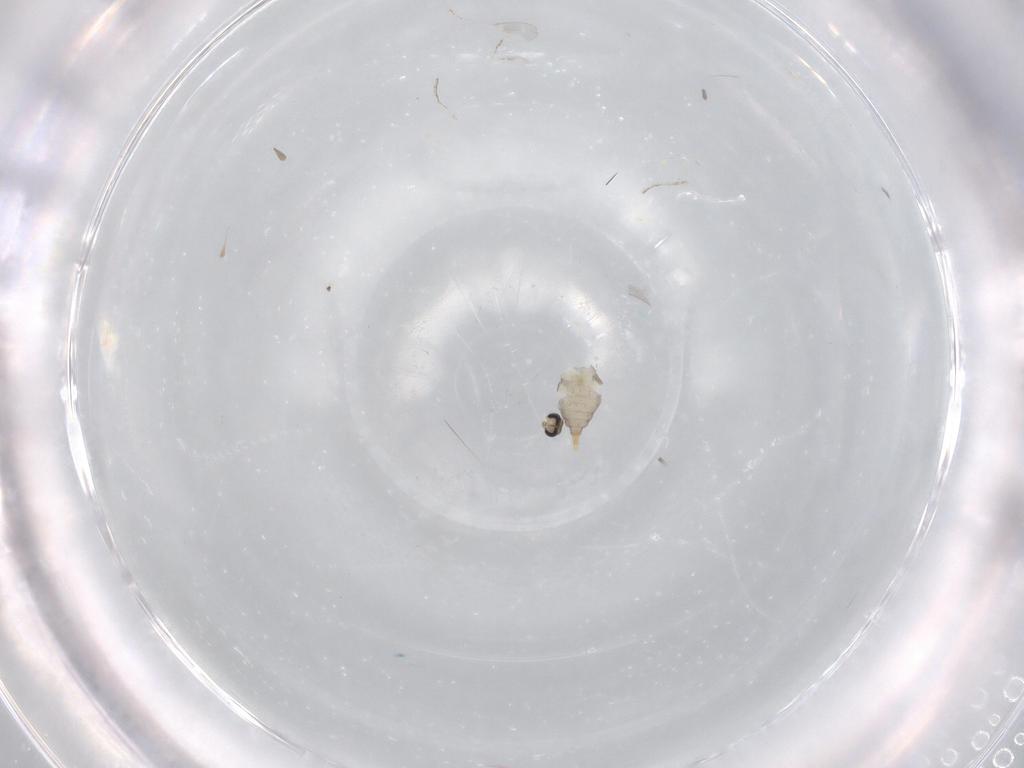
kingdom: Animalia
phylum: Arthropoda
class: Insecta
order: Diptera
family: Cecidomyiidae
